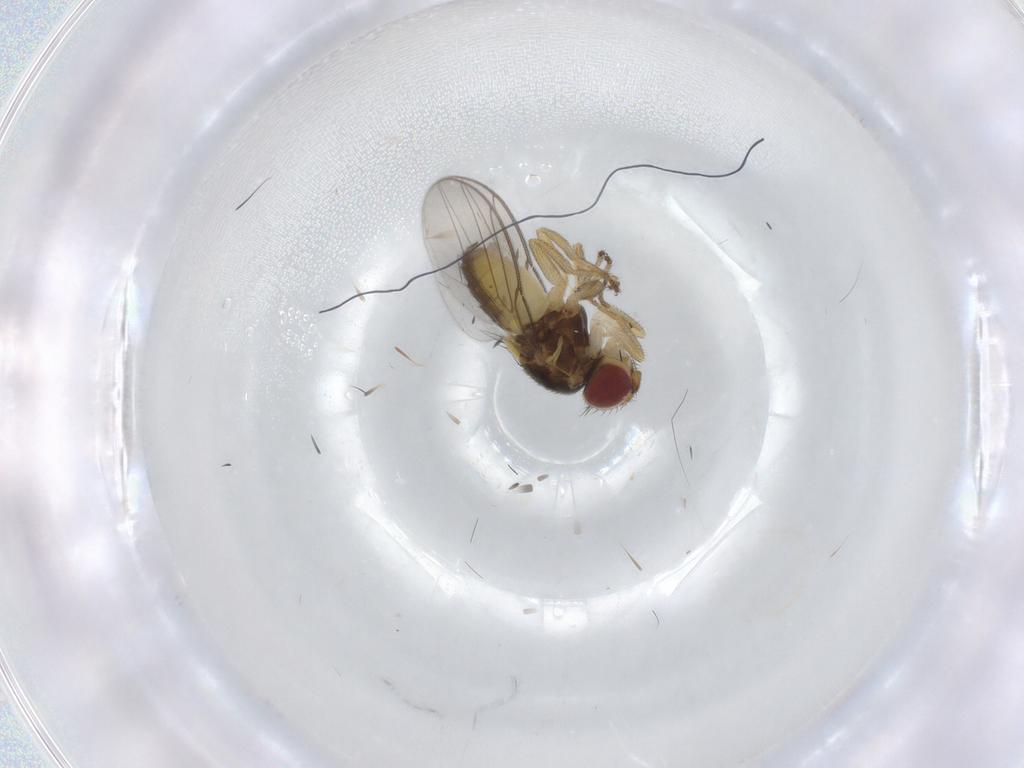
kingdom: Animalia
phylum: Arthropoda
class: Insecta
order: Diptera
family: Chloropidae
